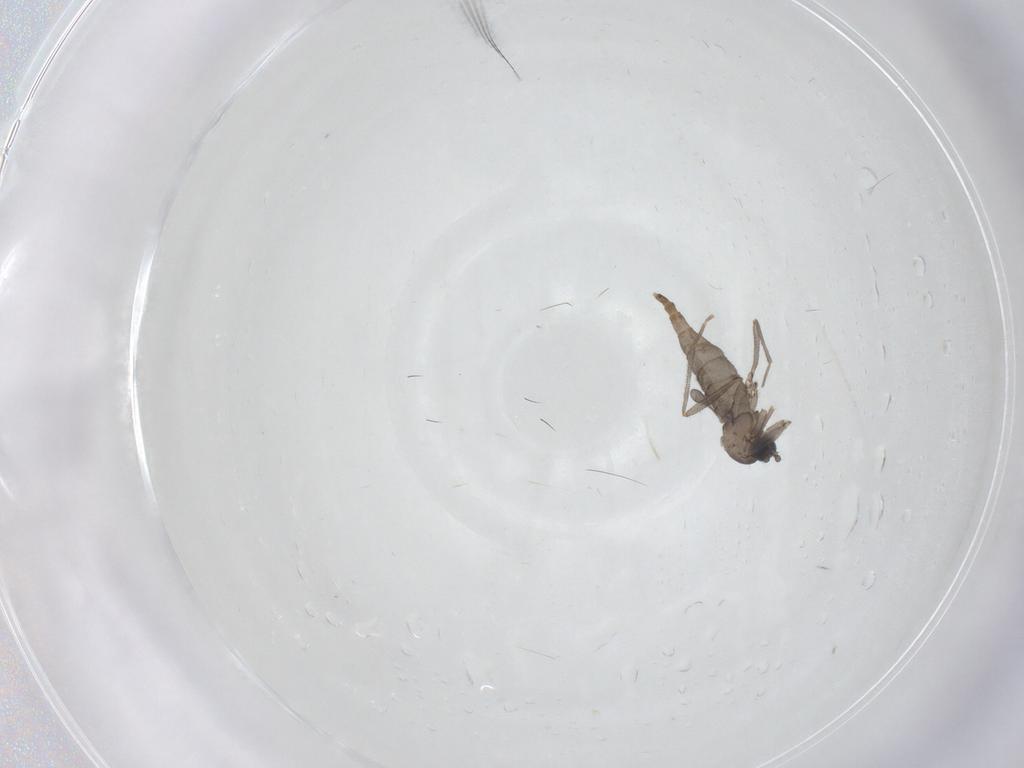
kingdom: Animalia
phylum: Arthropoda
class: Insecta
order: Diptera
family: Sciaridae
